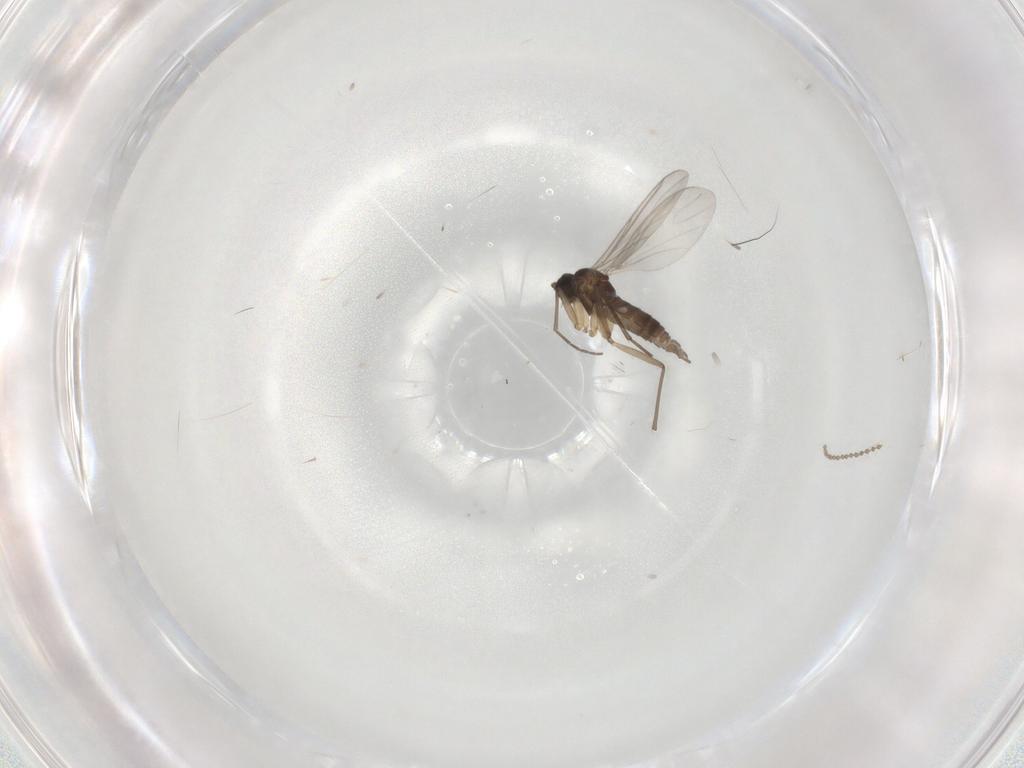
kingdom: Animalia
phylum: Arthropoda
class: Insecta
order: Diptera
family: Sciaridae
